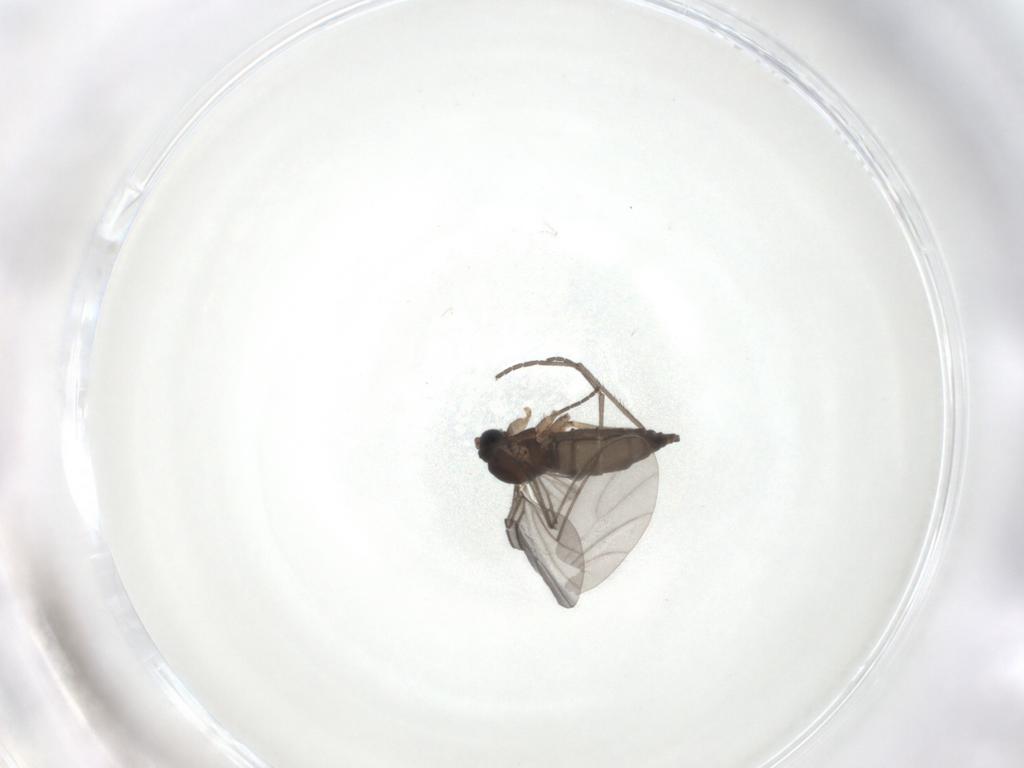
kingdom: Animalia
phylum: Arthropoda
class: Insecta
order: Diptera
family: Sciaridae
